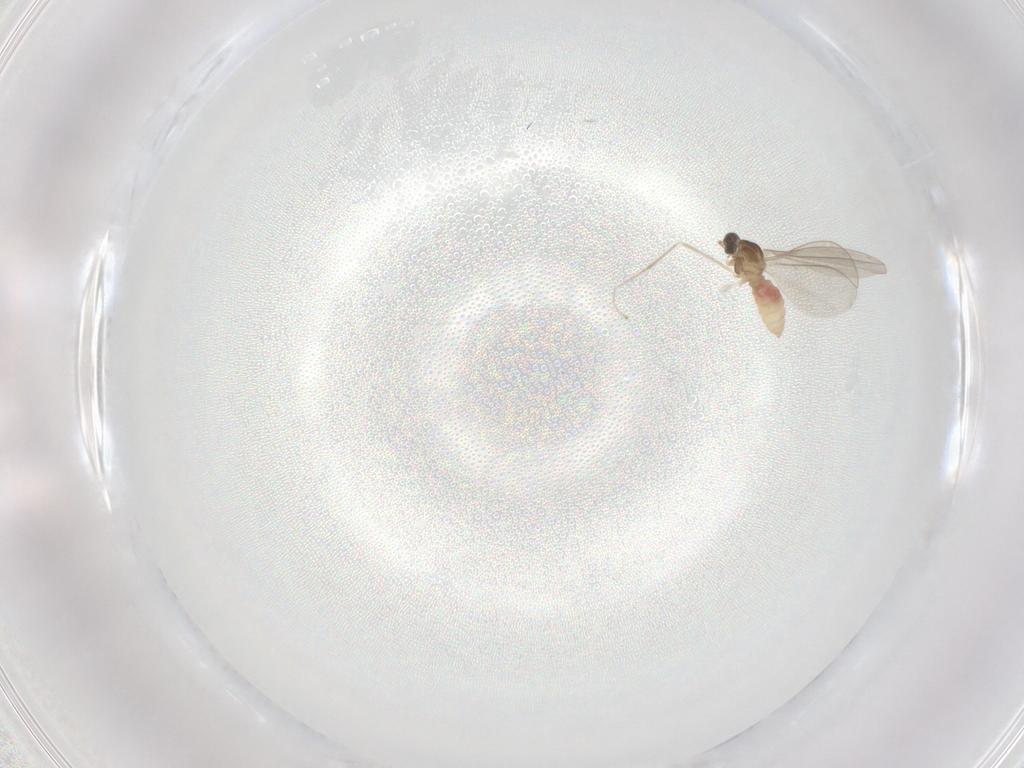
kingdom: Animalia
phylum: Arthropoda
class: Insecta
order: Diptera
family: Cecidomyiidae
